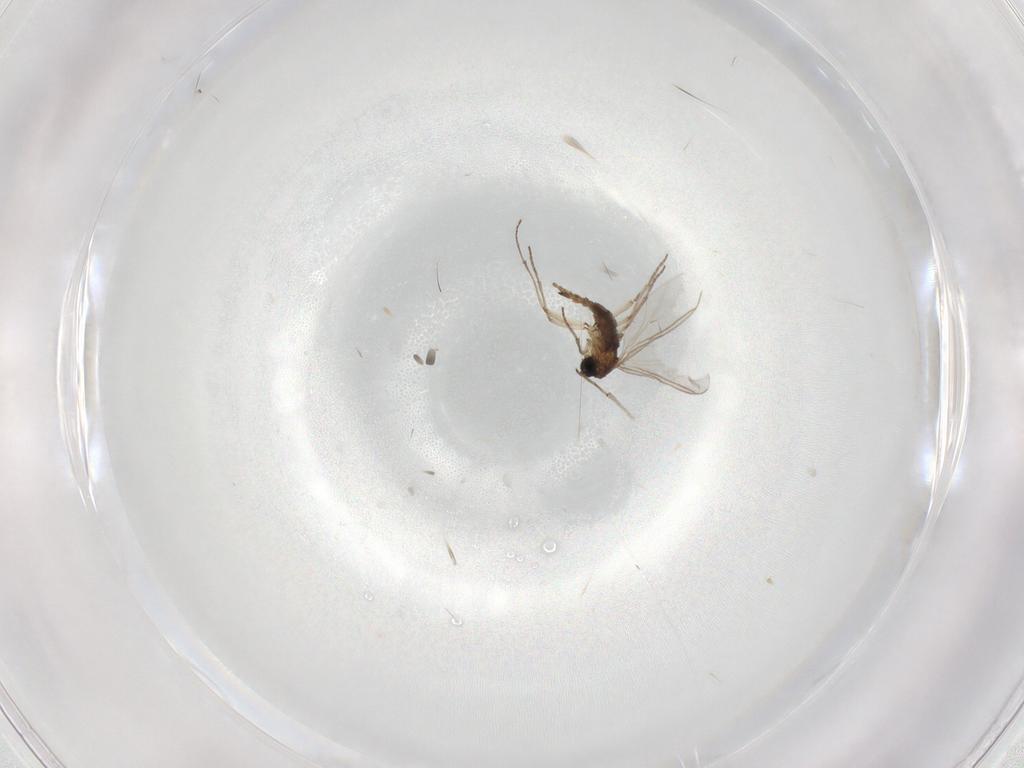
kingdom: Animalia
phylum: Arthropoda
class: Insecta
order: Diptera
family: Sciaridae
